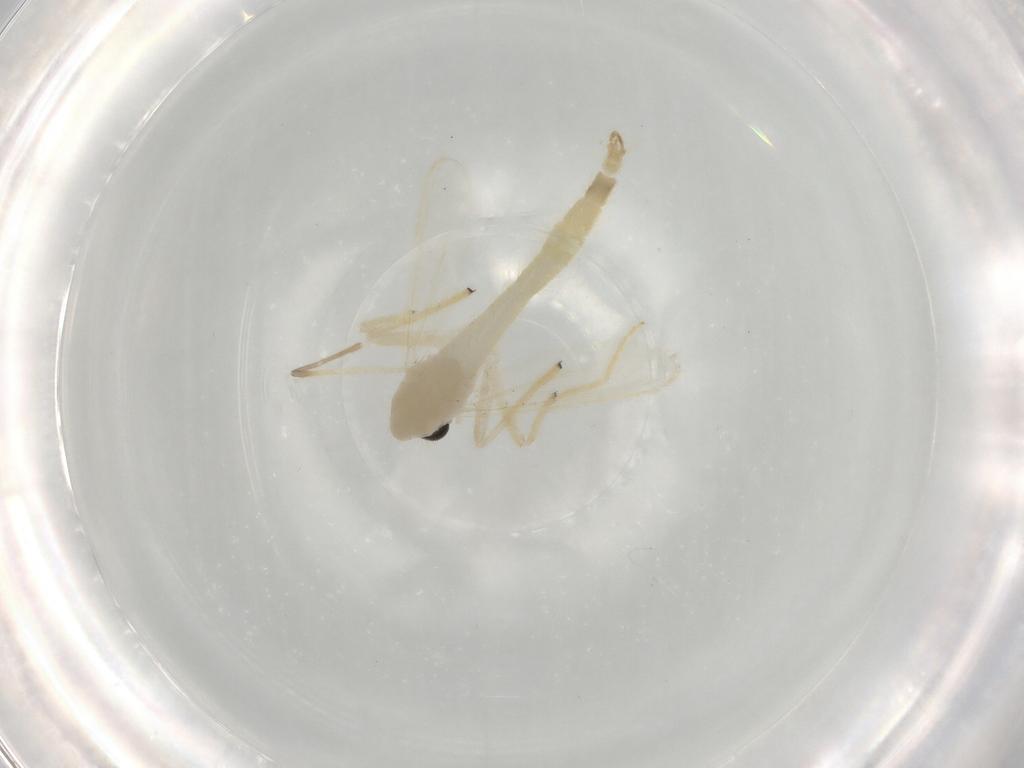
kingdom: Animalia
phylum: Arthropoda
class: Insecta
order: Diptera
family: Chironomidae
